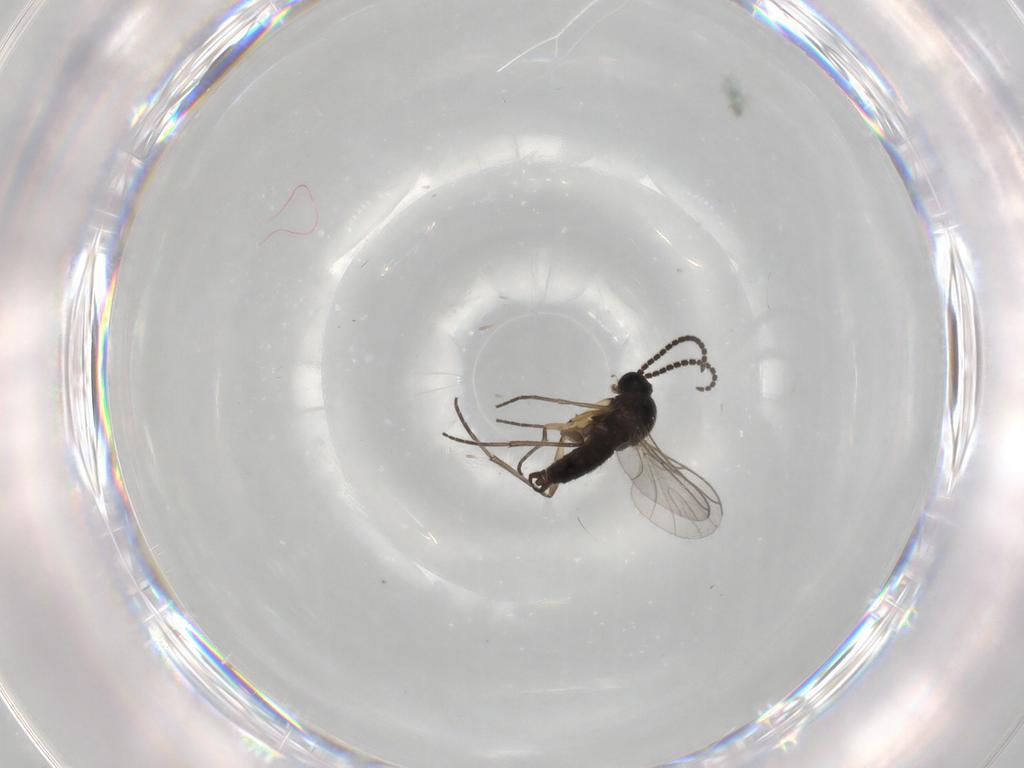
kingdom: Animalia
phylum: Arthropoda
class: Insecta
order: Diptera
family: Sciaridae
